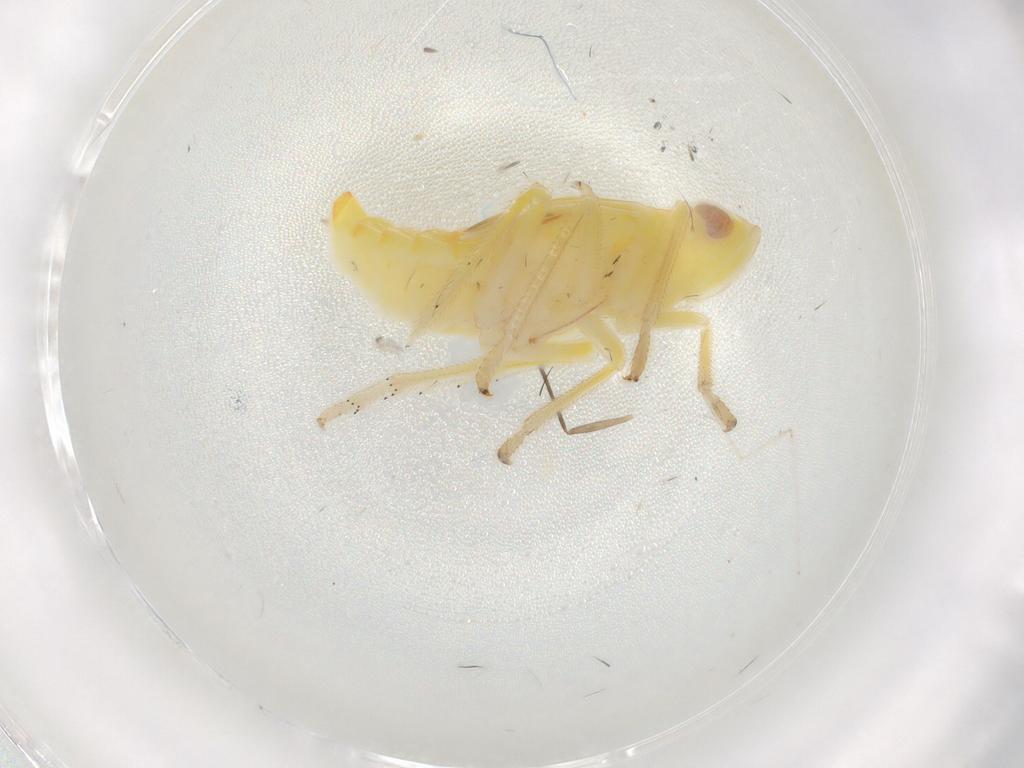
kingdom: Animalia
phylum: Arthropoda
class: Insecta
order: Hemiptera
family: Tropiduchidae
